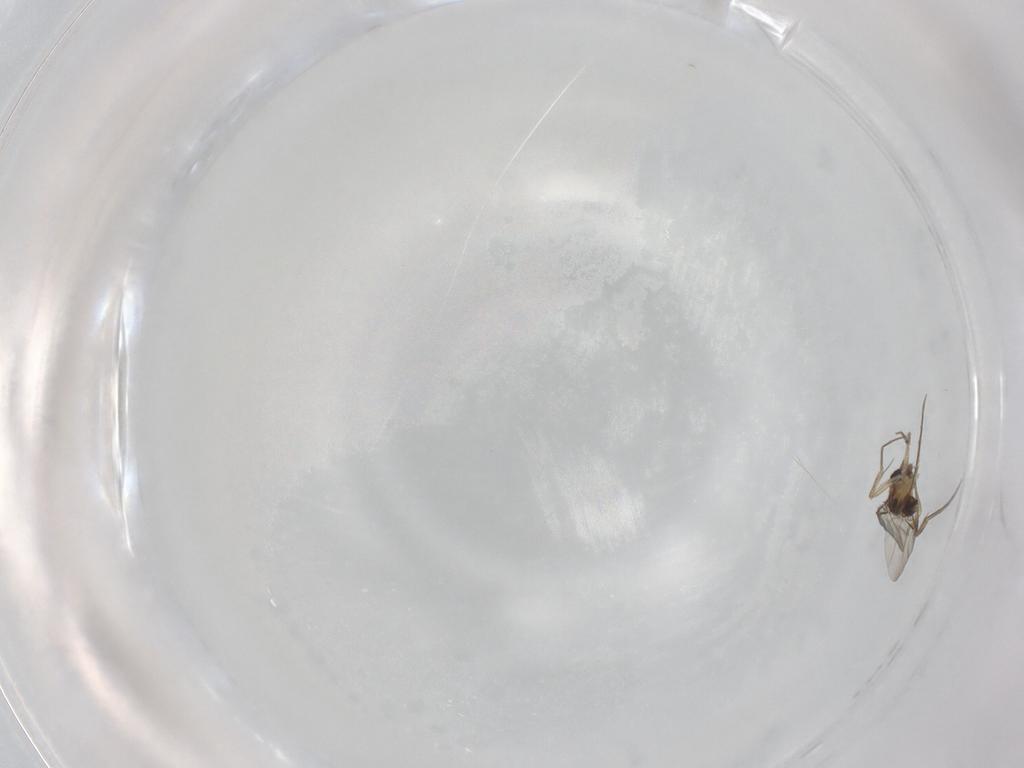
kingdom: Animalia
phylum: Arthropoda
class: Insecta
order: Diptera
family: Phoridae
